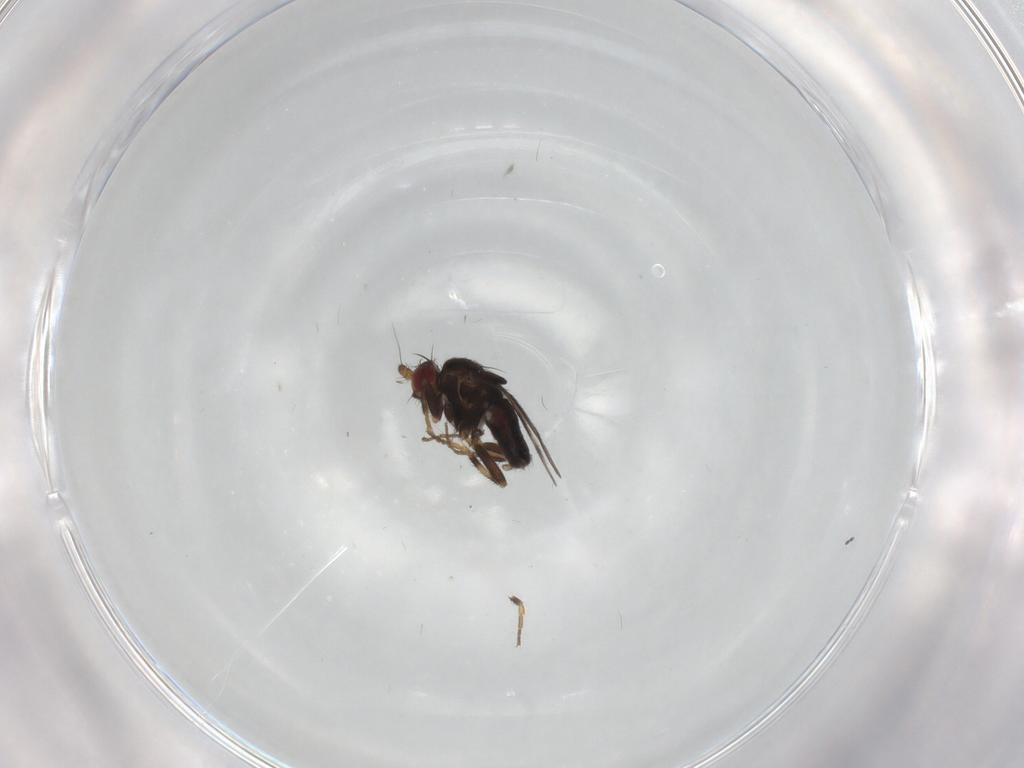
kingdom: Animalia
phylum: Arthropoda
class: Insecta
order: Diptera
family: Sphaeroceridae
